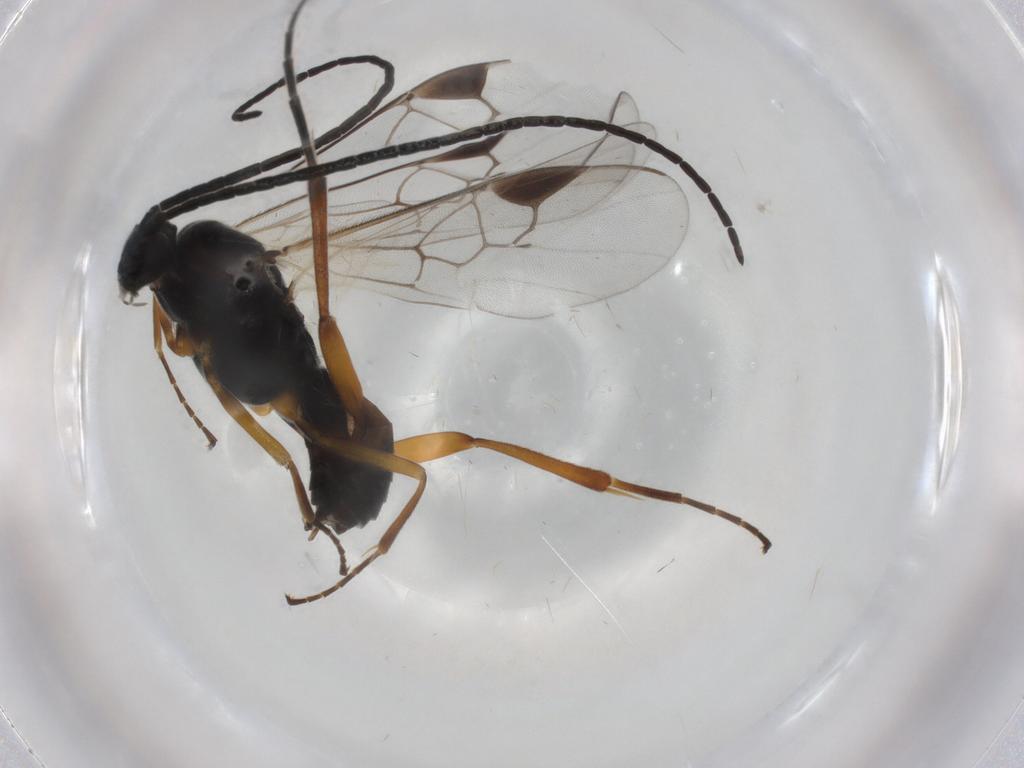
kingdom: Animalia
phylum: Arthropoda
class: Insecta
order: Hymenoptera
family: Braconidae
